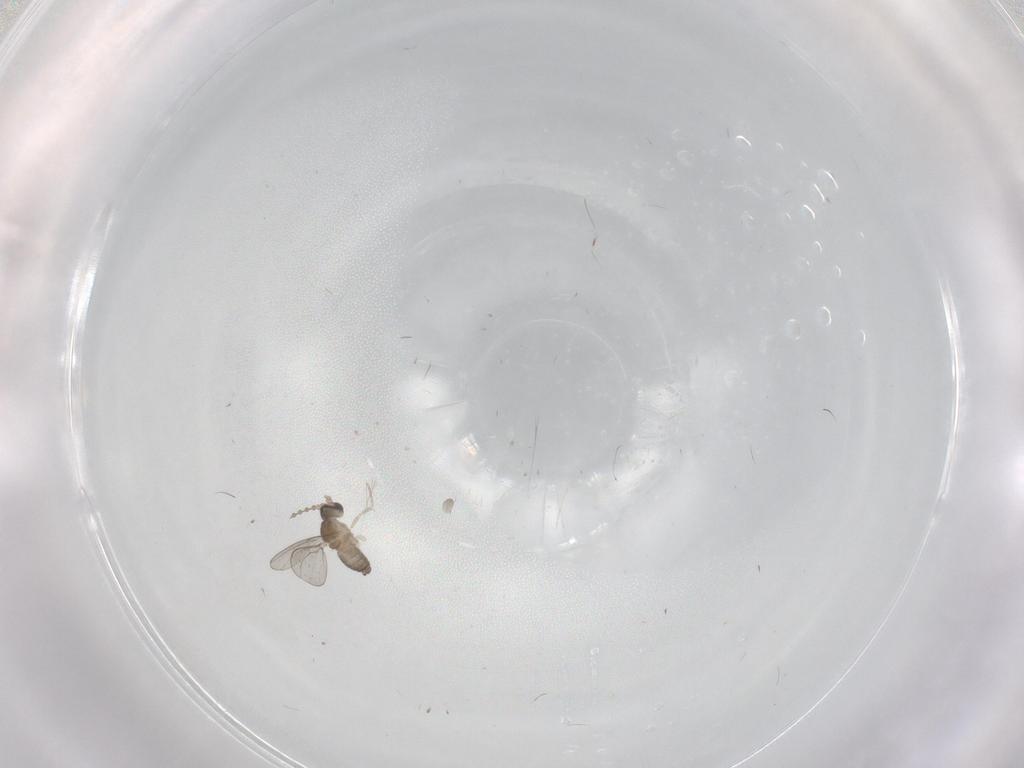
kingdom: Animalia
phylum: Arthropoda
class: Insecta
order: Diptera
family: Cecidomyiidae
